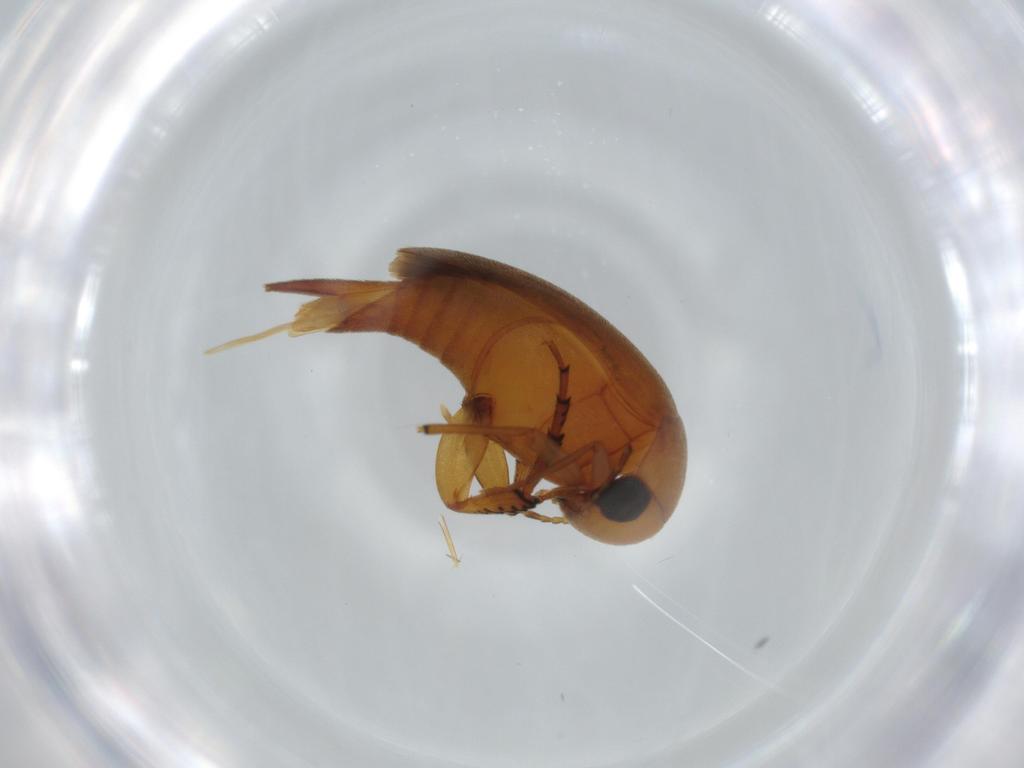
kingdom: Animalia
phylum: Arthropoda
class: Insecta
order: Coleoptera
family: Mordellidae
